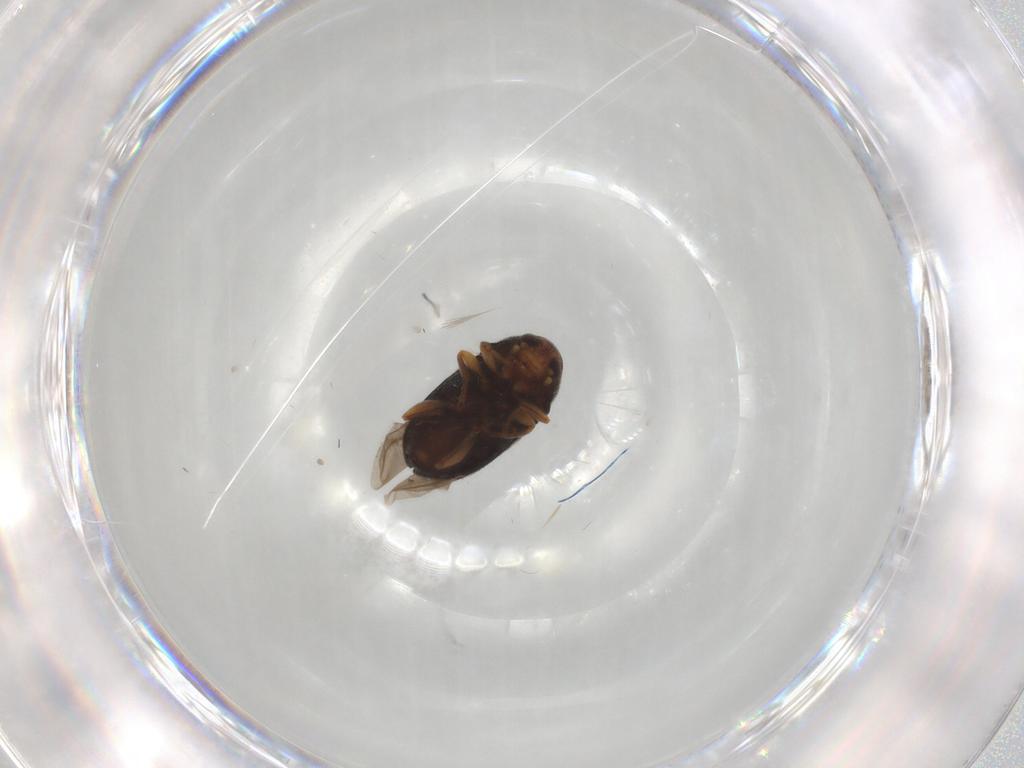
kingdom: Animalia
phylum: Arthropoda
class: Insecta
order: Coleoptera
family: Anthribidae
